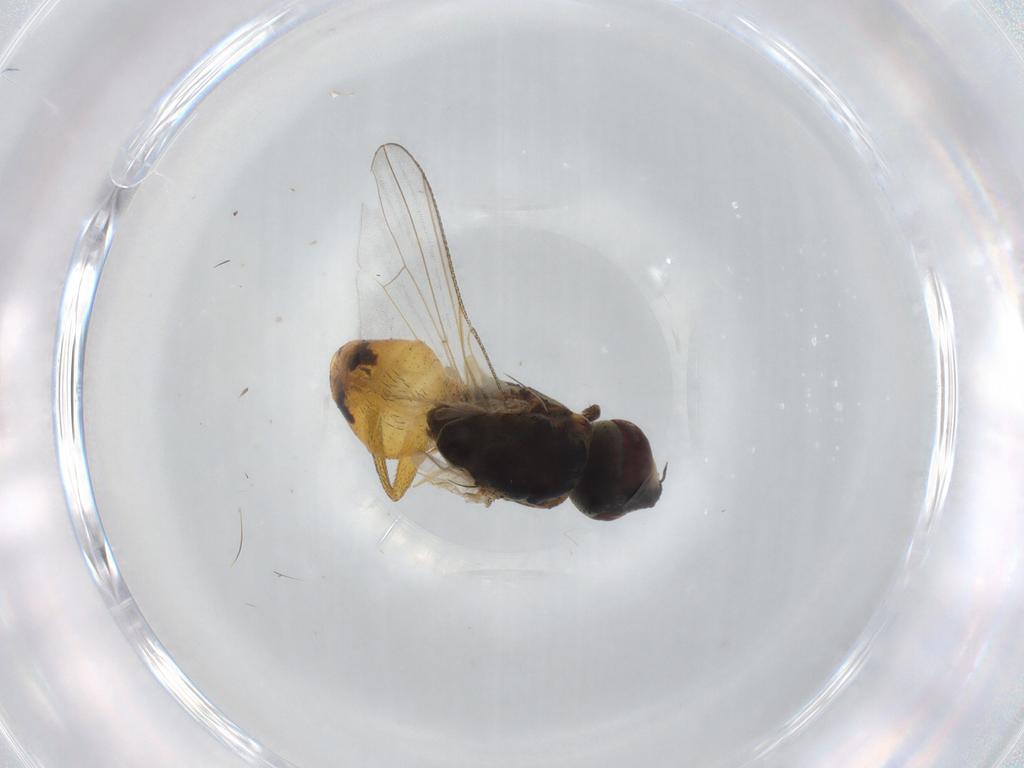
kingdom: Animalia
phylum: Arthropoda
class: Insecta
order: Diptera
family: Muscidae
